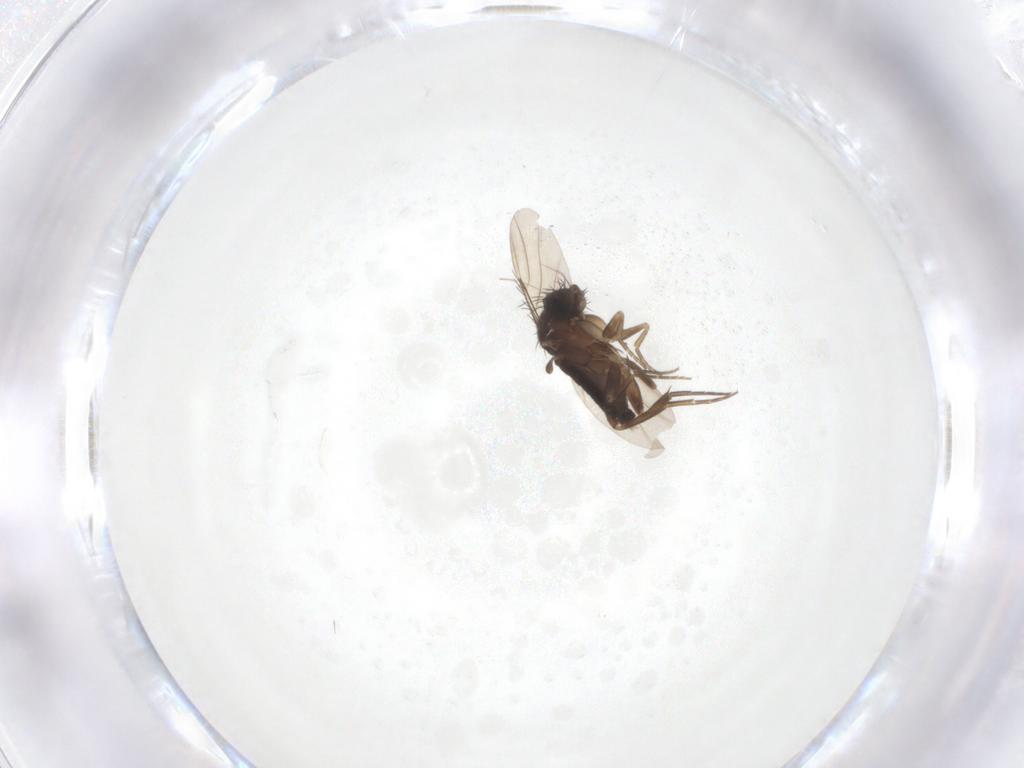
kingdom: Animalia
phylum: Arthropoda
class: Insecta
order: Diptera
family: Phoridae
